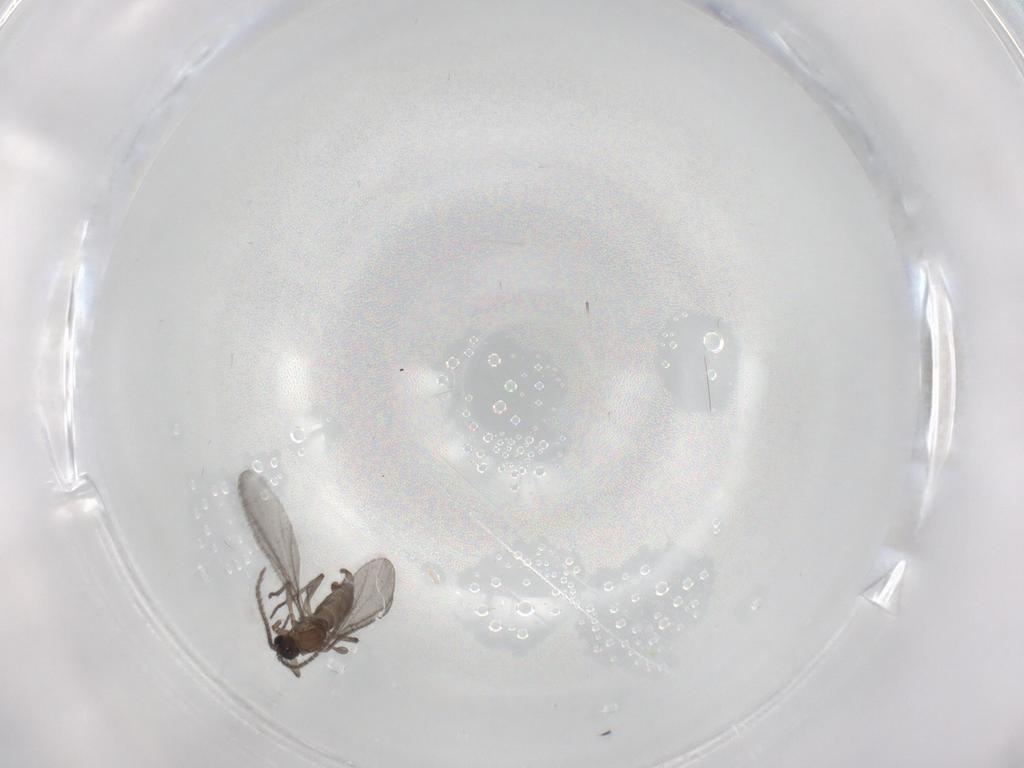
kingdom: Animalia
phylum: Arthropoda
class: Insecta
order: Diptera
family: Sciaridae
